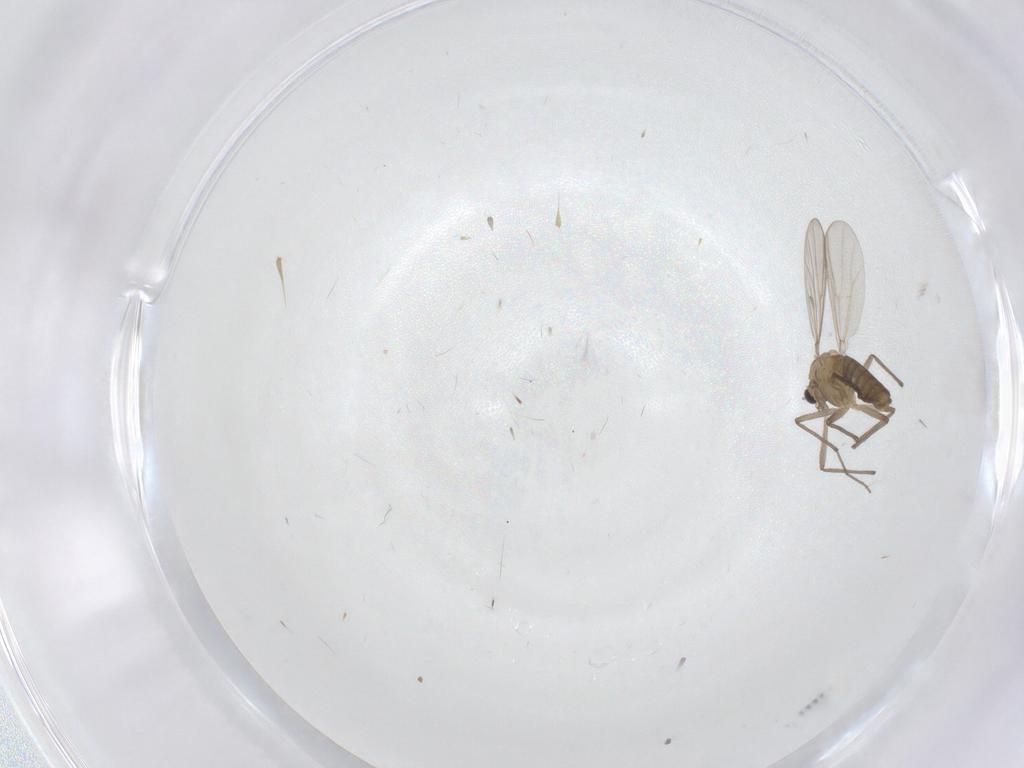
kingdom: Animalia
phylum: Arthropoda
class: Insecta
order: Diptera
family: Chironomidae
